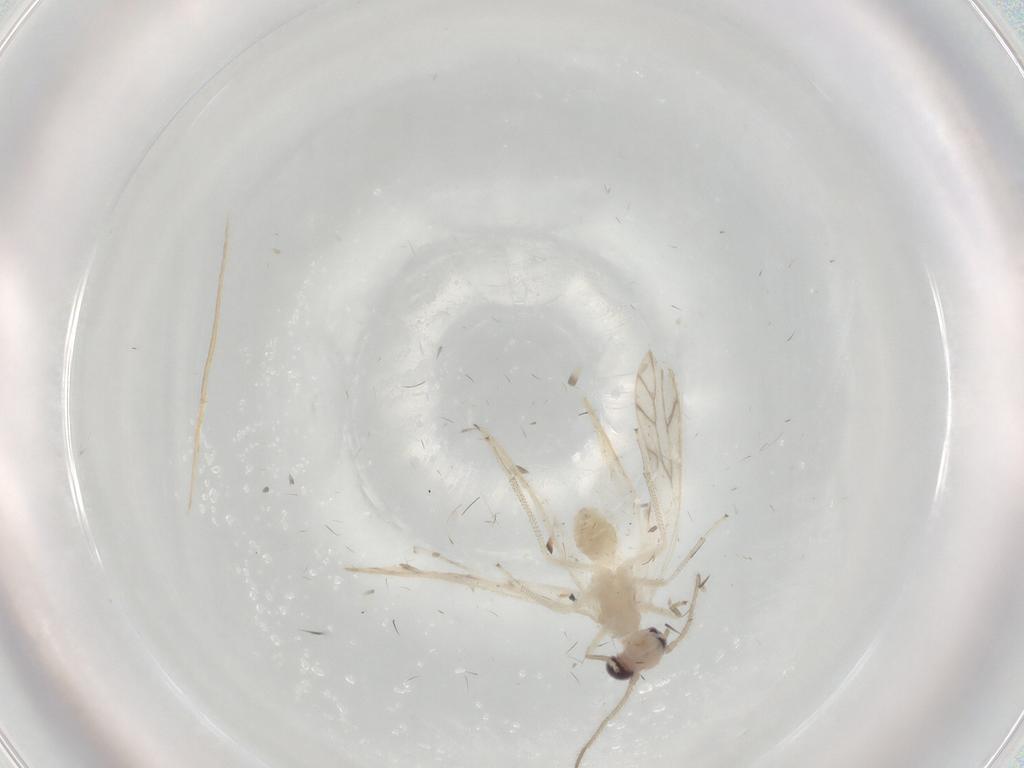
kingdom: Animalia
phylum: Arthropoda
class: Insecta
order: Psocodea
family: Caeciliusidae
